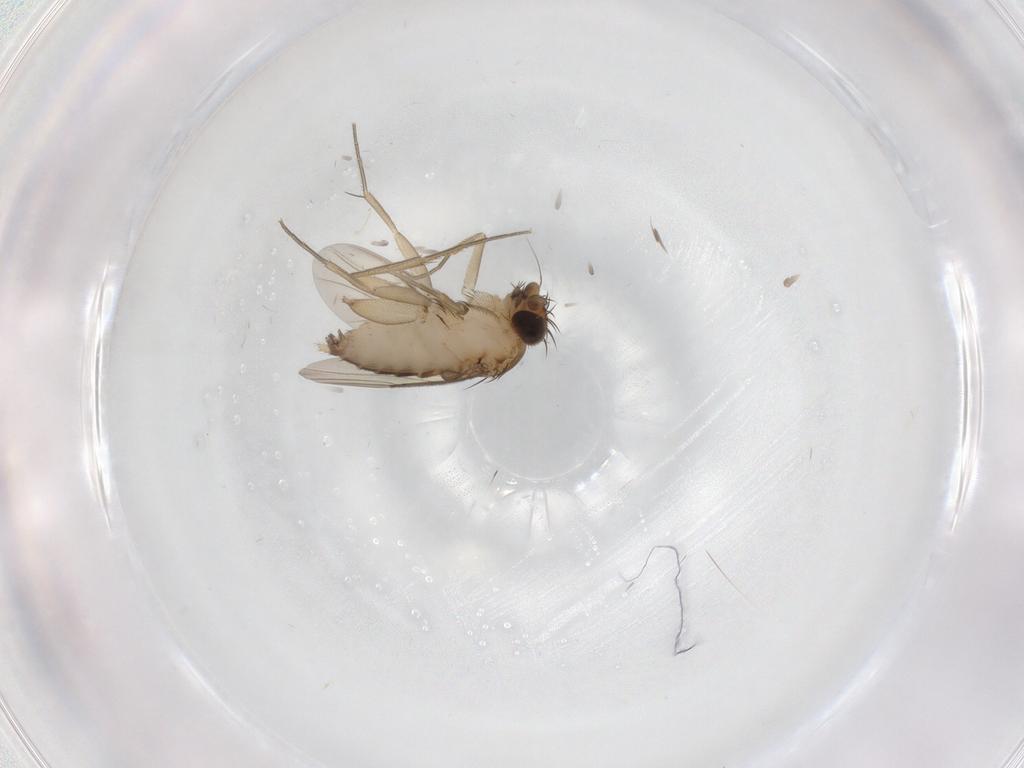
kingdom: Animalia
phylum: Arthropoda
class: Insecta
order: Diptera
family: Phoridae
